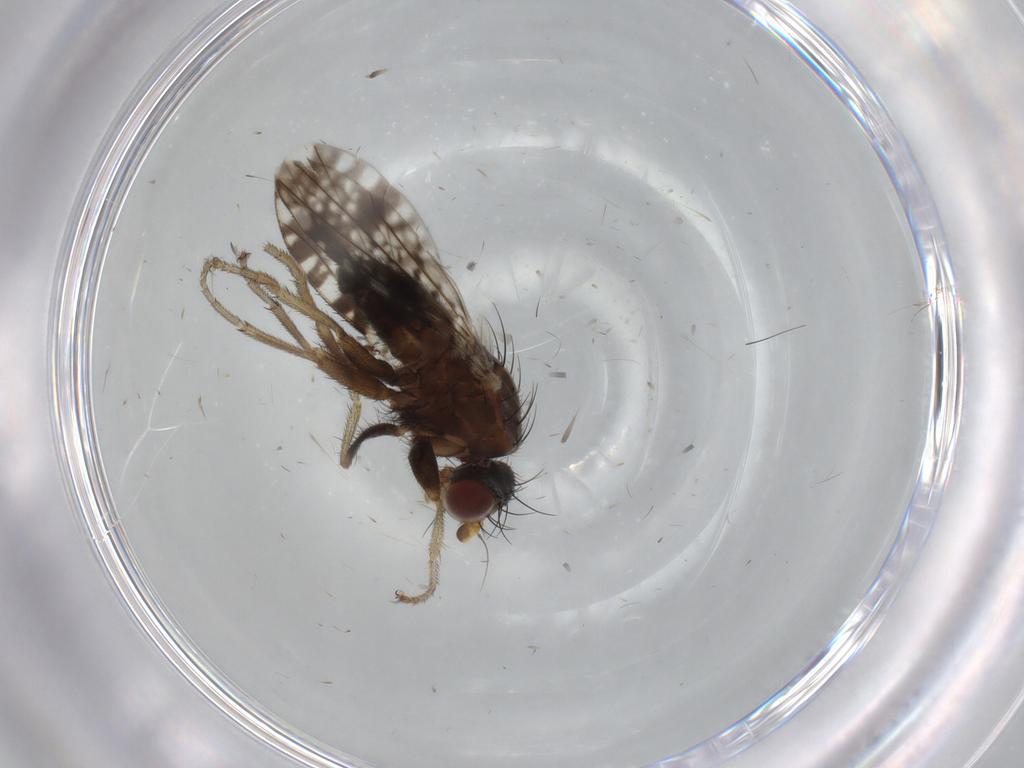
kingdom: Animalia
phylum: Arthropoda
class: Insecta
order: Diptera
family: Tephritidae
